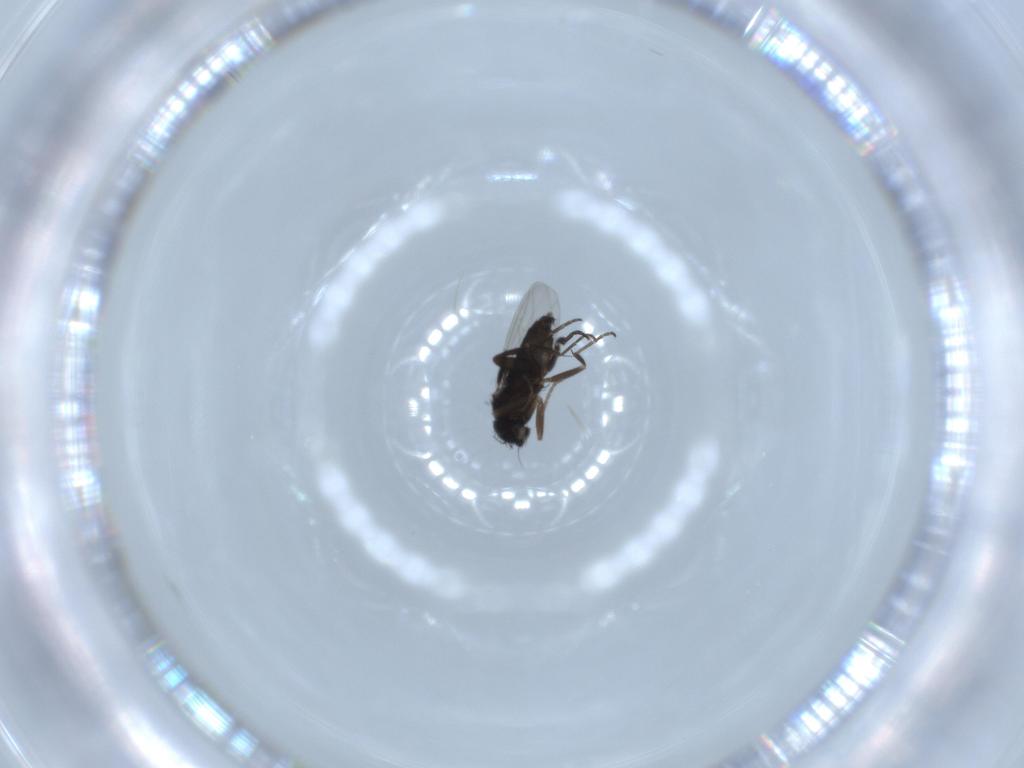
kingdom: Animalia
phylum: Arthropoda
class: Insecta
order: Diptera
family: Phoridae
